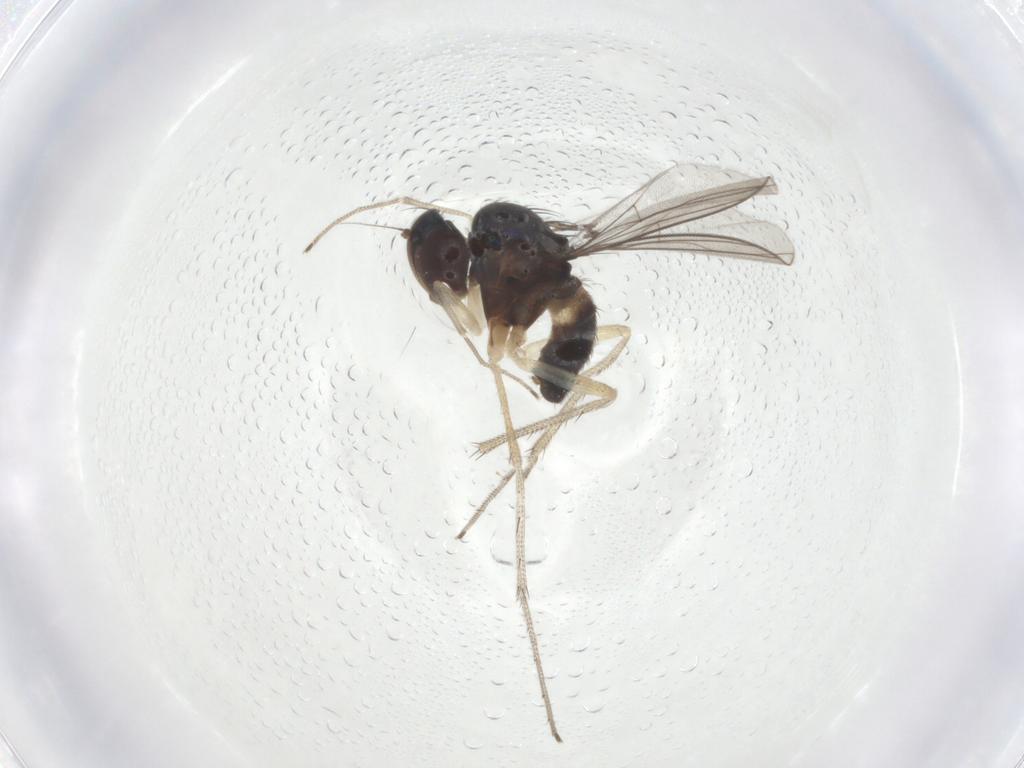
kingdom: Animalia
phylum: Arthropoda
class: Insecta
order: Diptera
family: Dolichopodidae
